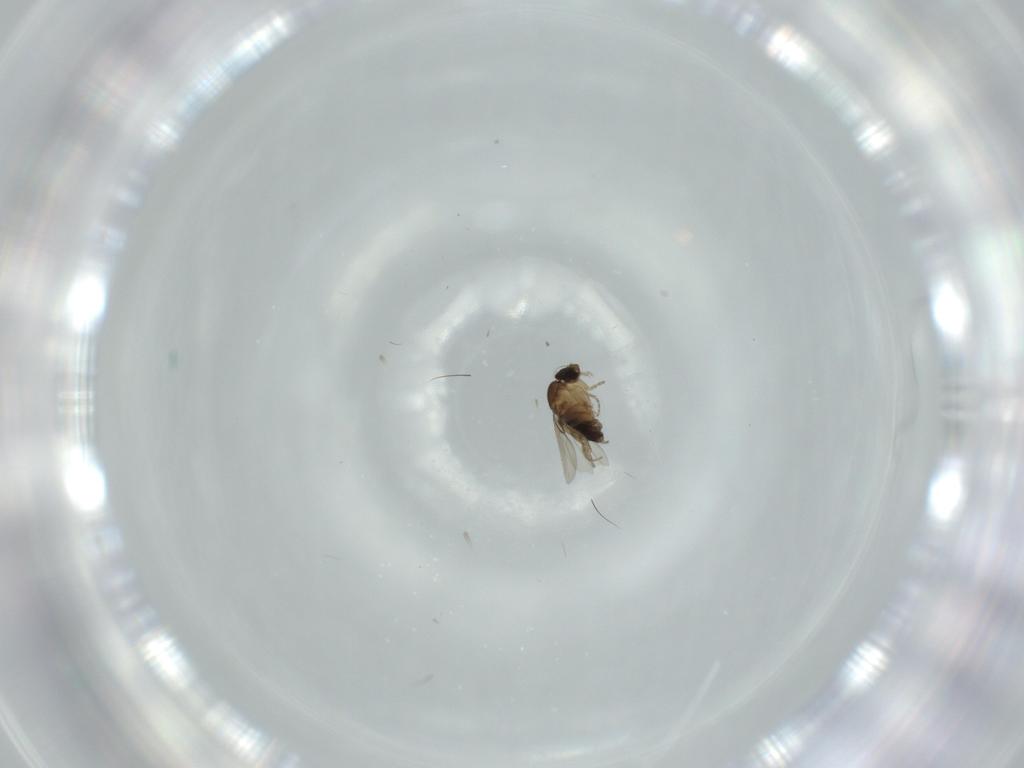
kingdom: Animalia
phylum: Arthropoda
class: Insecta
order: Diptera
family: Phoridae
